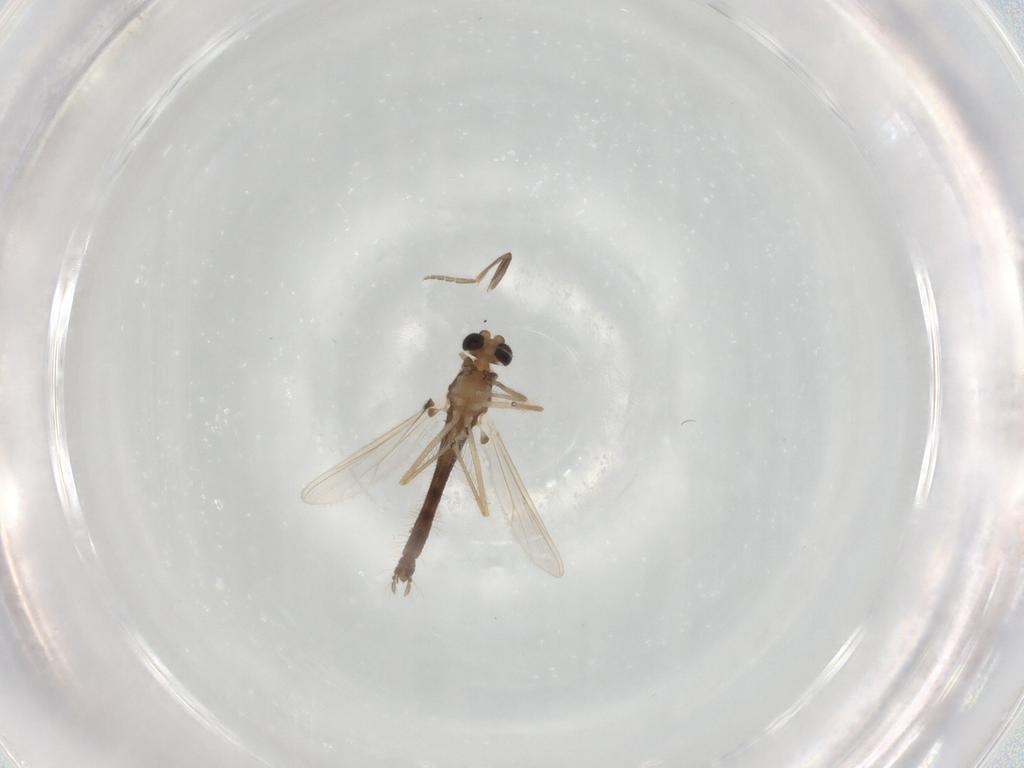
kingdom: Animalia
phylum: Arthropoda
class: Insecta
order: Diptera
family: Chironomidae
